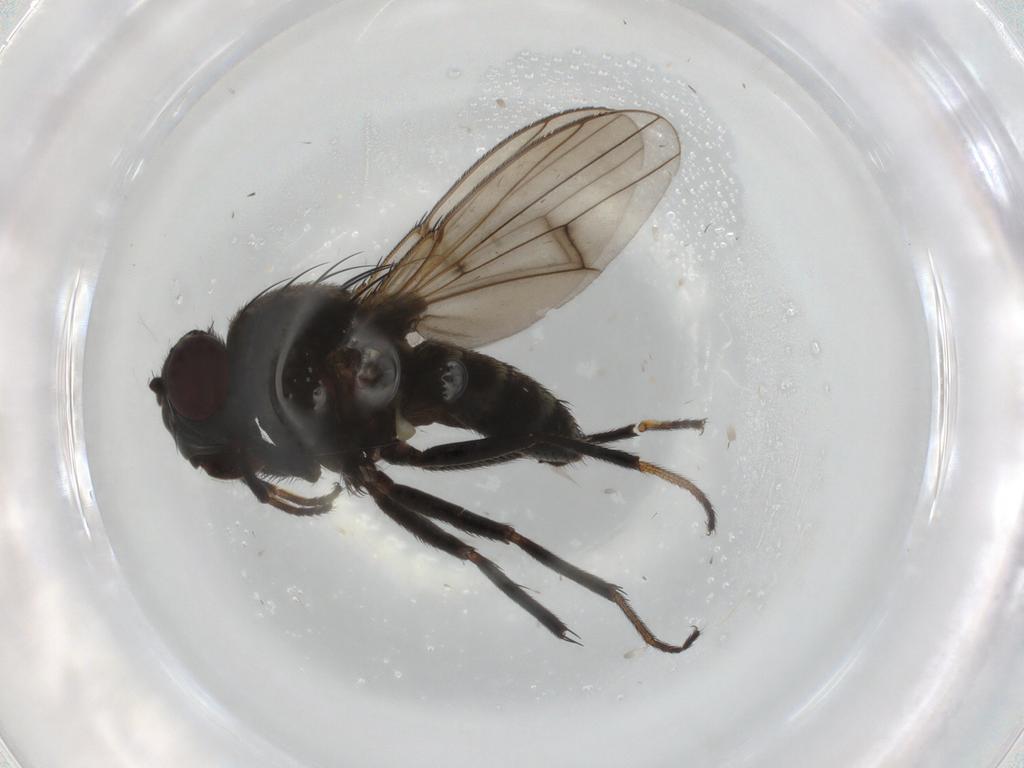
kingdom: Animalia
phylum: Arthropoda
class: Insecta
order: Diptera
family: Ephydridae
